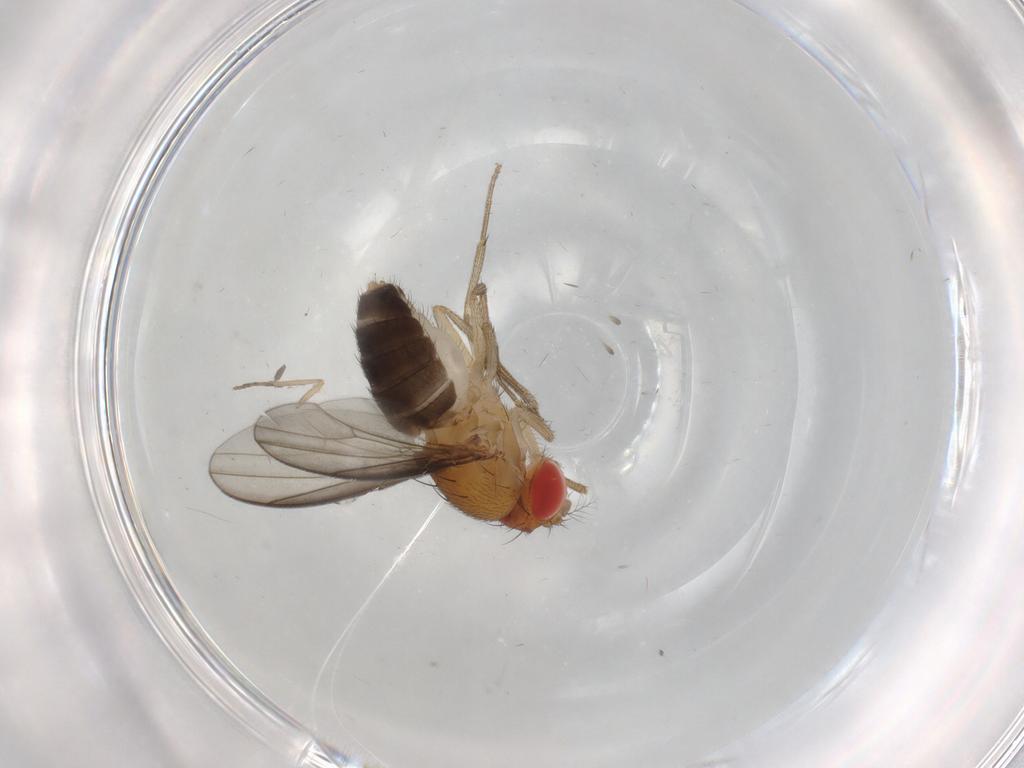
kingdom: Animalia
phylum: Arthropoda
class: Insecta
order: Diptera
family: Drosophilidae
